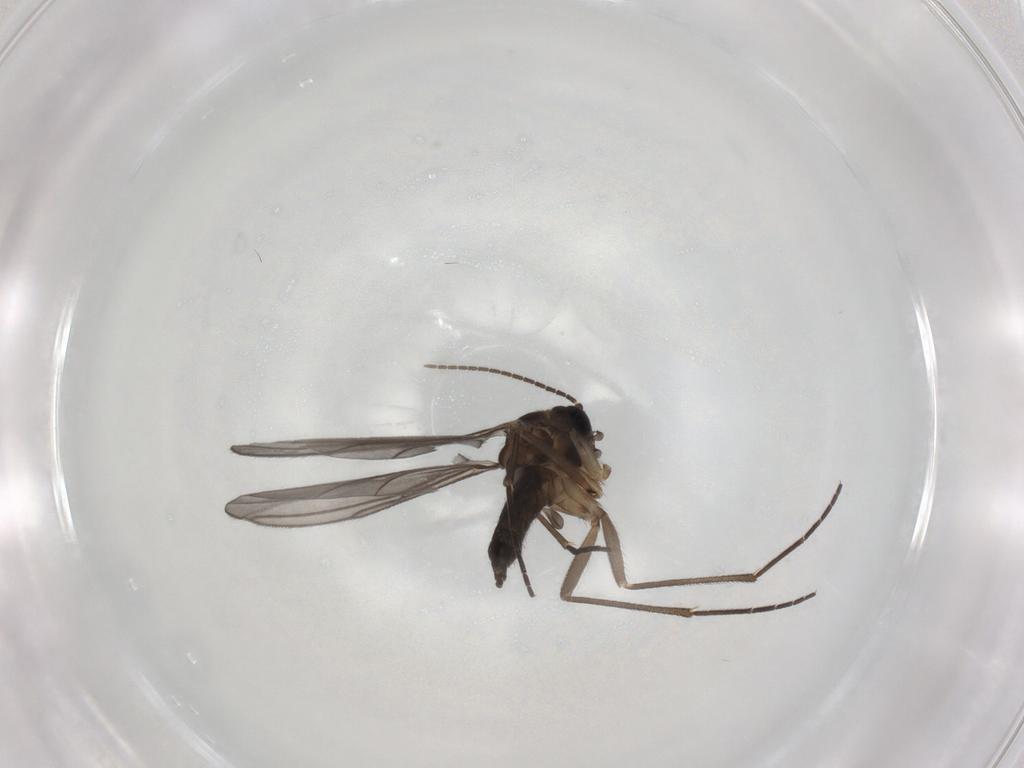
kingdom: Animalia
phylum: Arthropoda
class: Insecta
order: Diptera
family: Sciaridae
